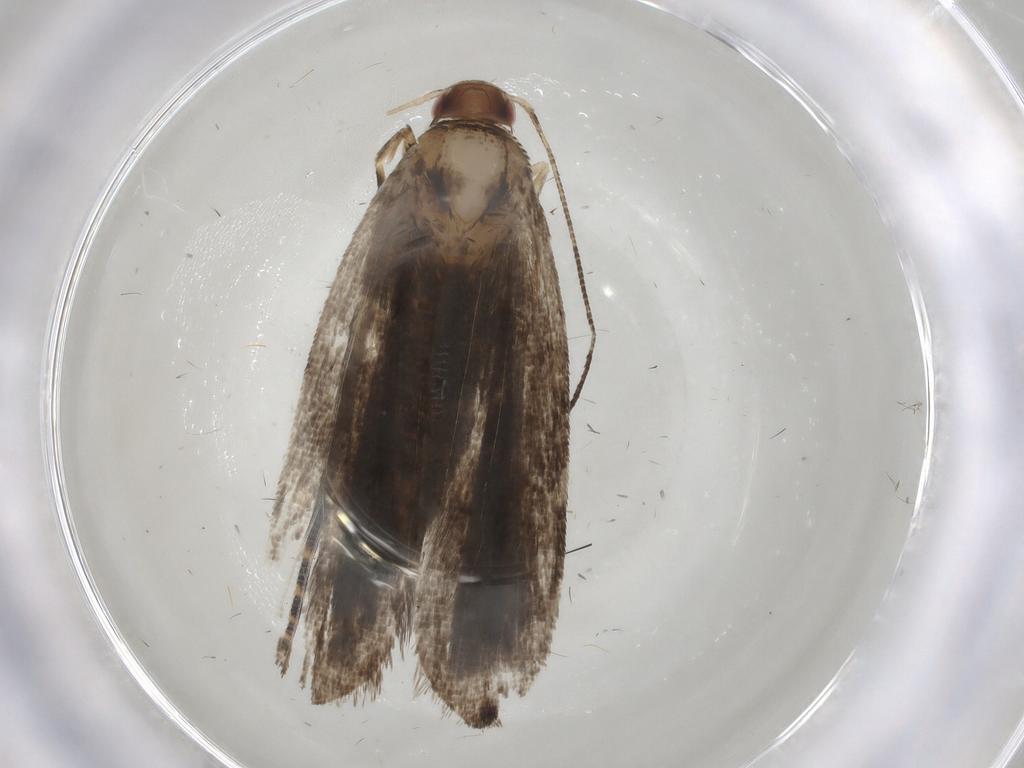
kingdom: Animalia
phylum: Arthropoda
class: Insecta
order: Lepidoptera
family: Gelechiidae
